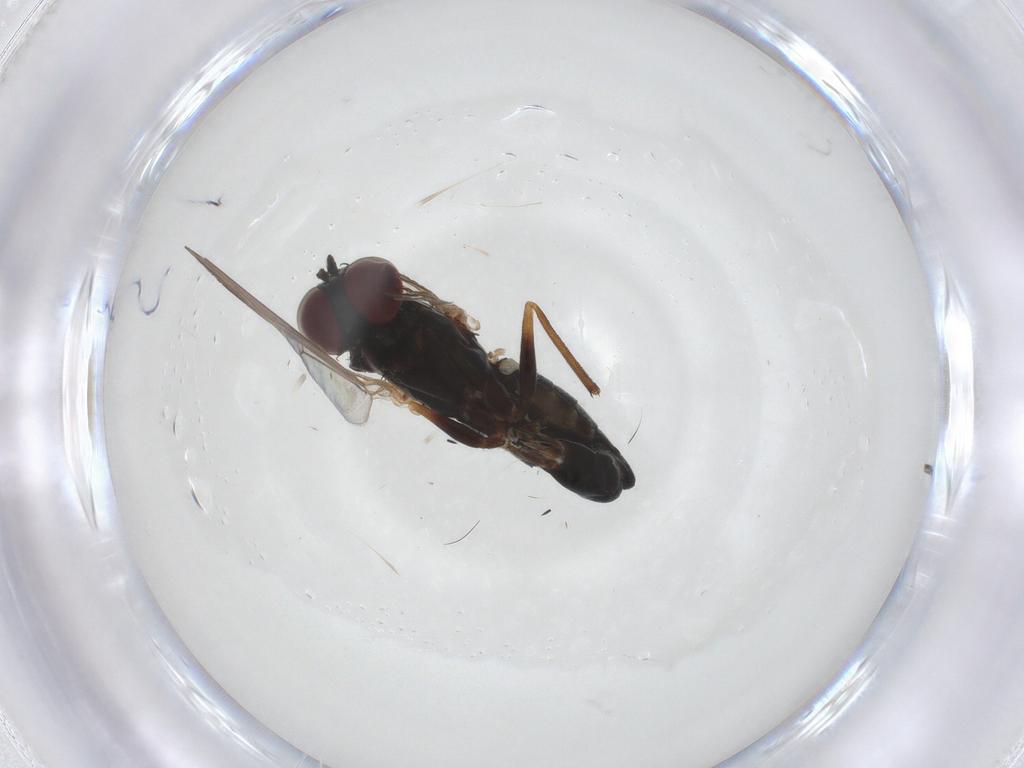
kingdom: Animalia
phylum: Arthropoda
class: Insecta
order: Diptera
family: Dolichopodidae
